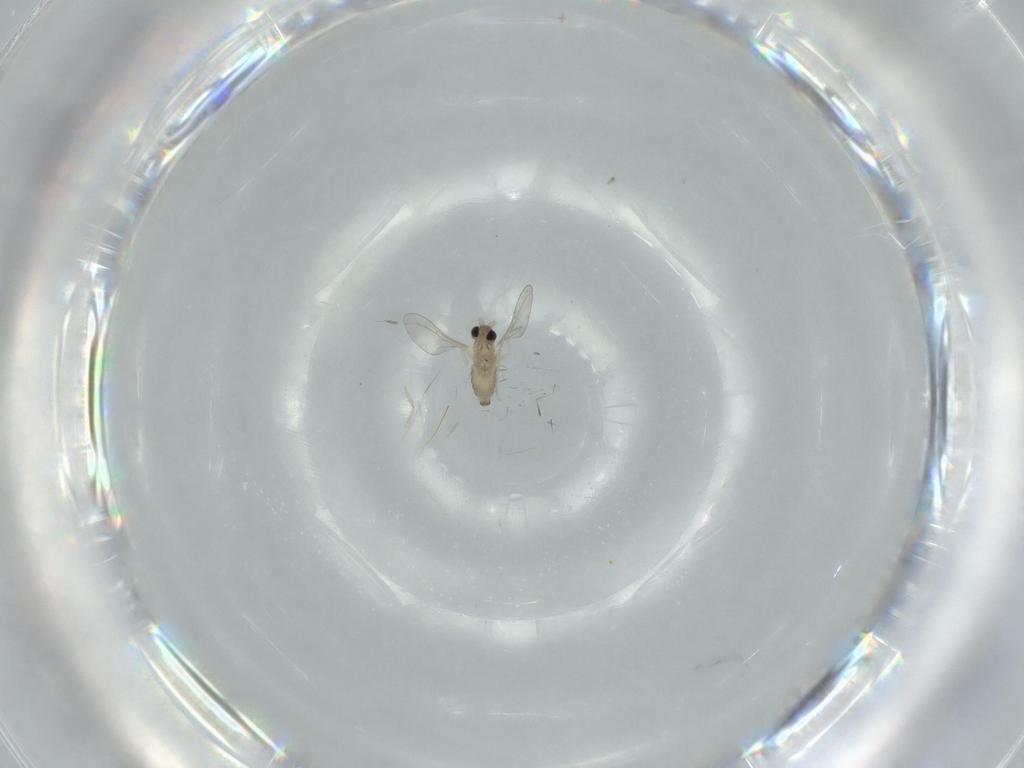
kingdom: Animalia
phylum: Arthropoda
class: Insecta
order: Diptera
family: Cecidomyiidae
